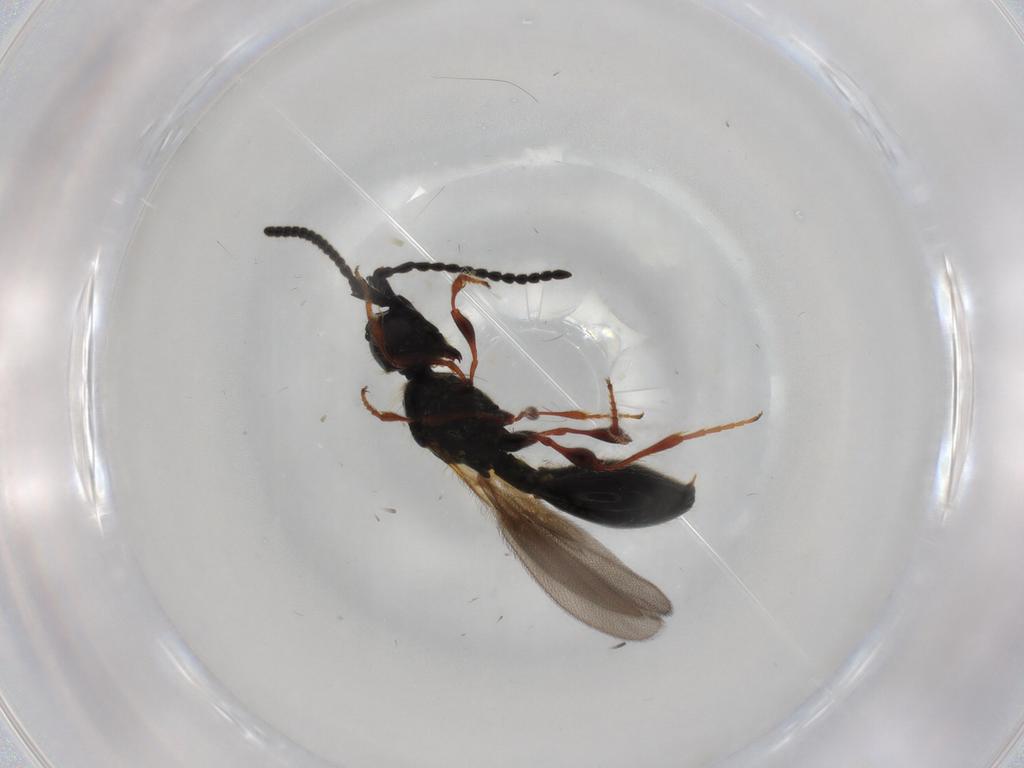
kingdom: Animalia
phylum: Arthropoda
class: Insecta
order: Hymenoptera
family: Diapriidae
